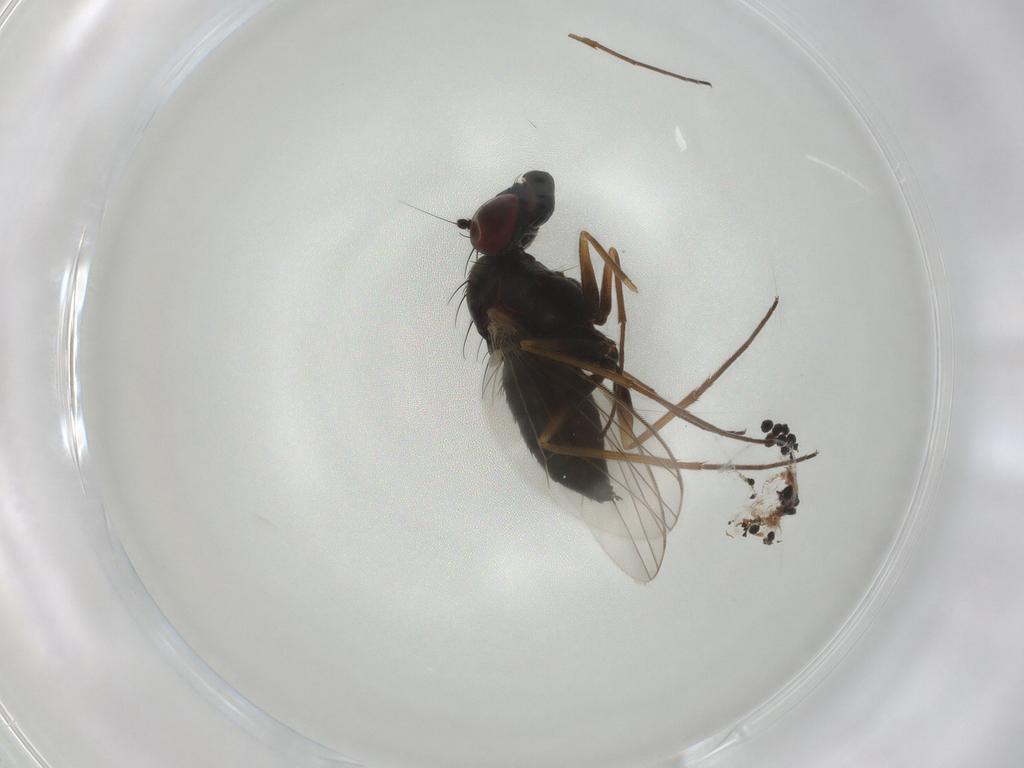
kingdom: Animalia
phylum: Arthropoda
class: Insecta
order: Diptera
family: Dolichopodidae
